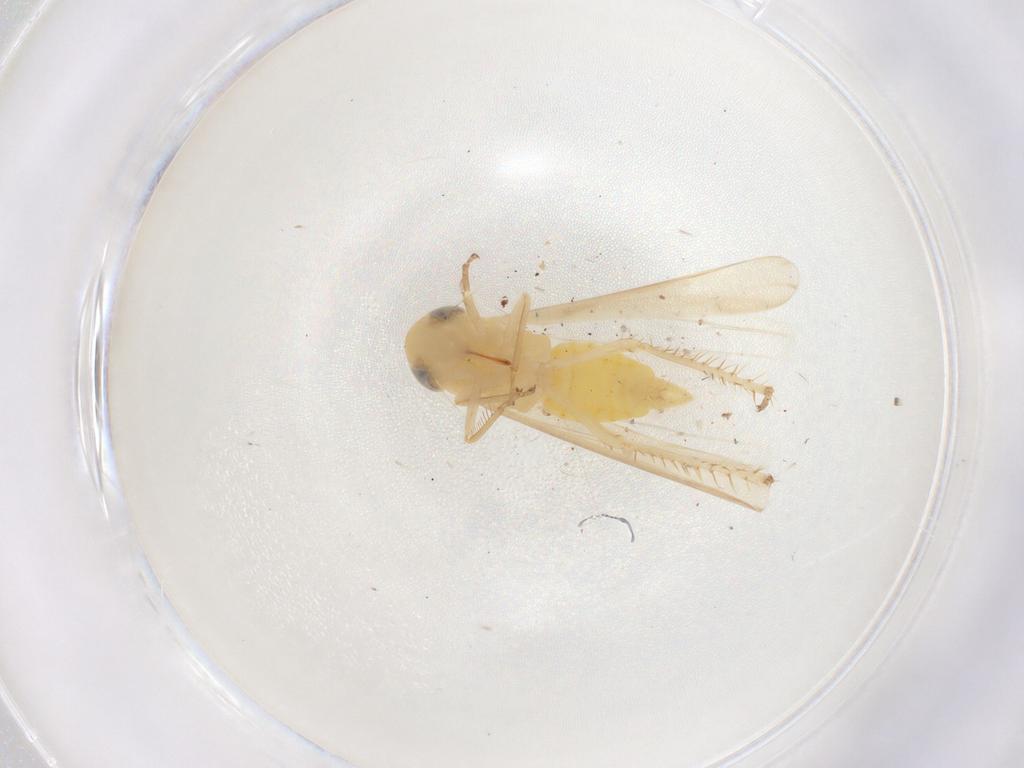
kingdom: Animalia
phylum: Arthropoda
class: Insecta
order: Hemiptera
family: Cicadellidae
